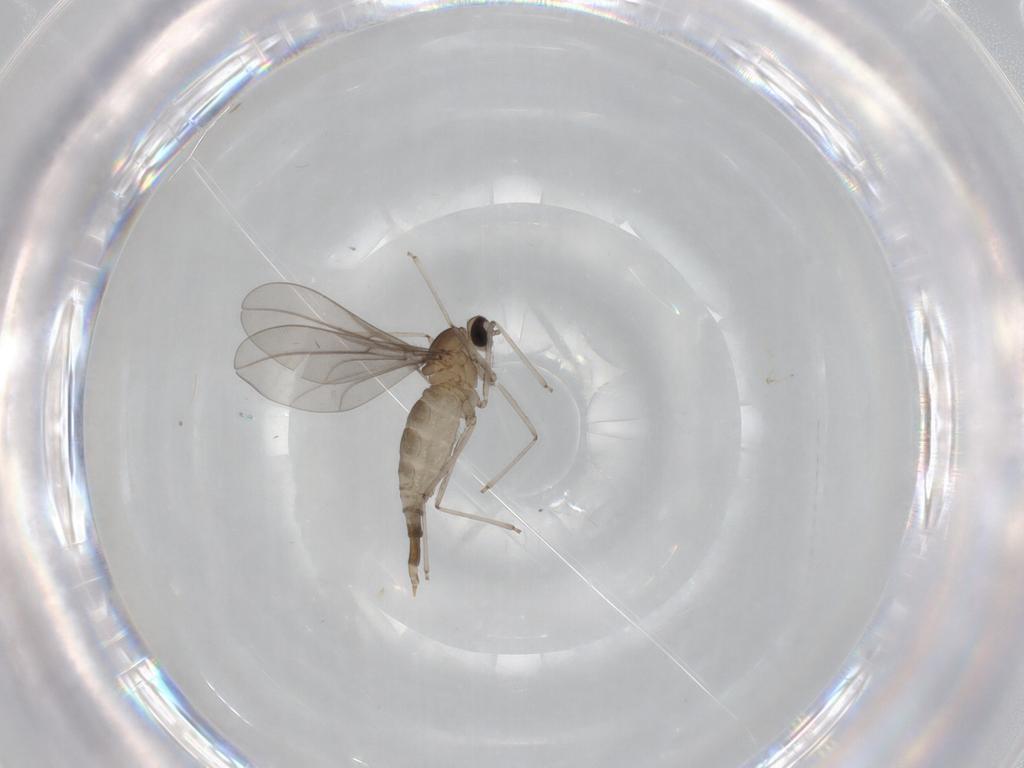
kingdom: Animalia
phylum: Arthropoda
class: Insecta
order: Diptera
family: Cecidomyiidae
